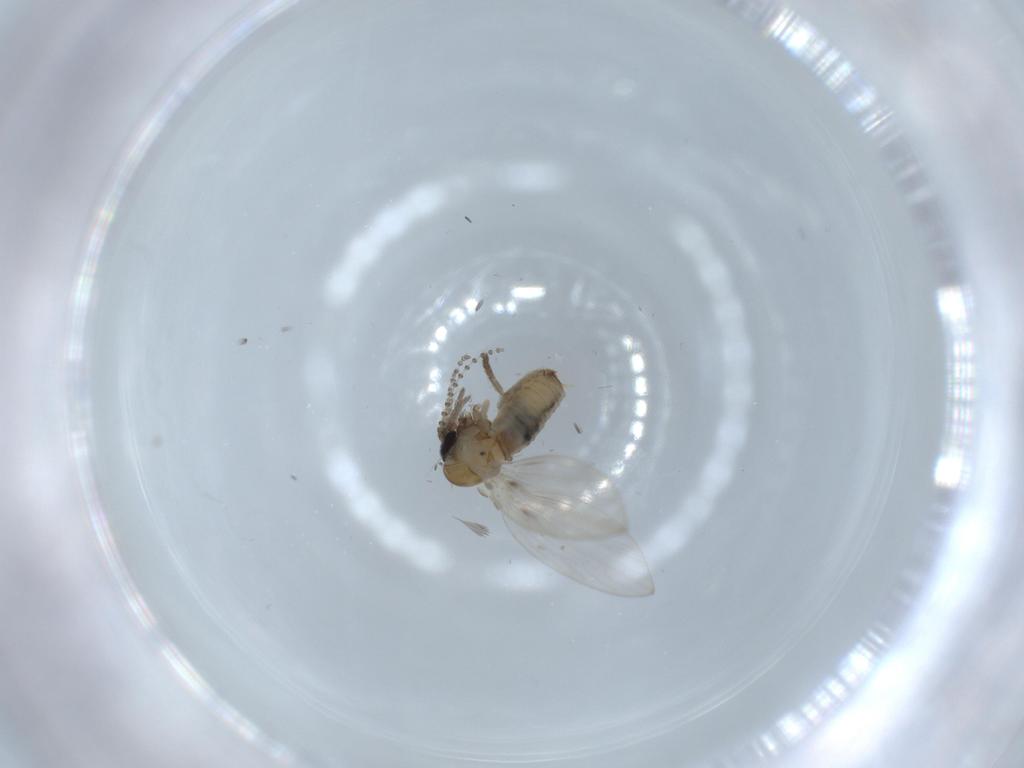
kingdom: Animalia
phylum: Arthropoda
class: Insecta
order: Diptera
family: Psychodidae
